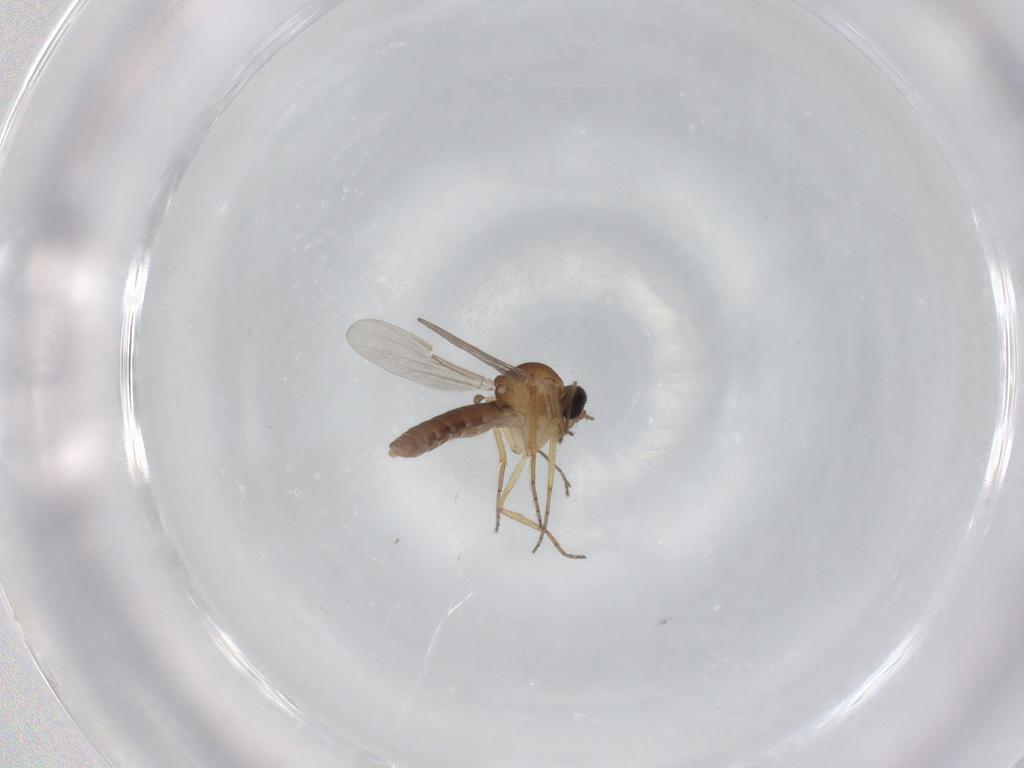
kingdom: Animalia
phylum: Arthropoda
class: Insecta
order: Diptera
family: Ceratopogonidae
